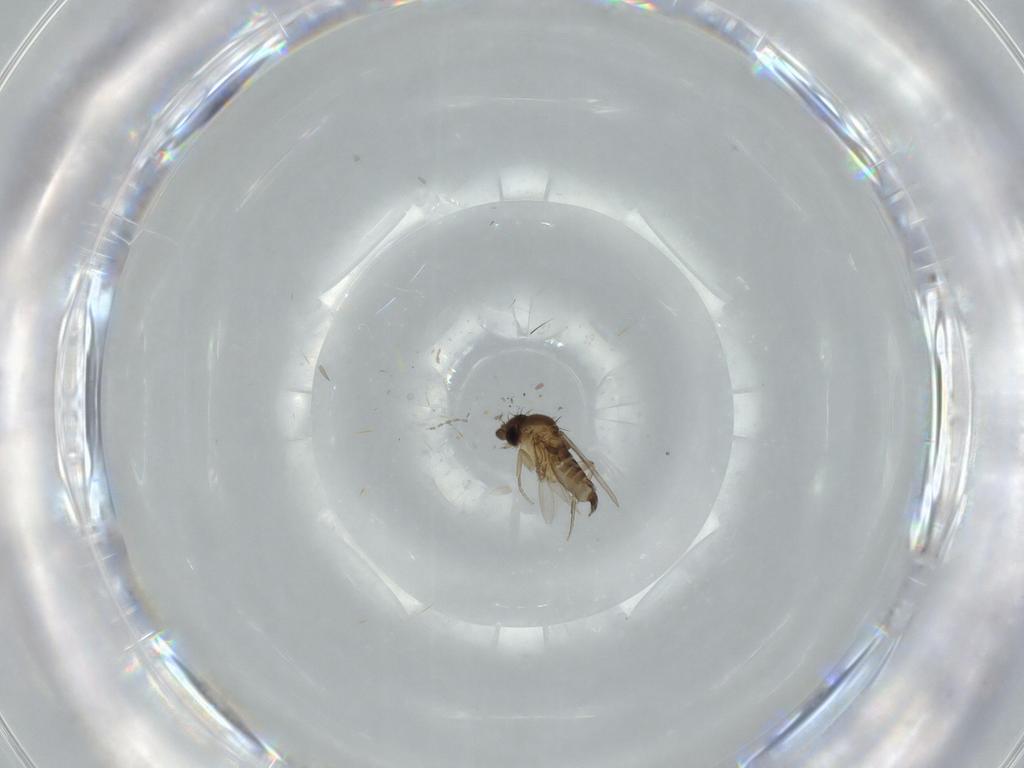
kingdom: Animalia
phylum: Arthropoda
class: Insecta
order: Diptera
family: Phoridae
